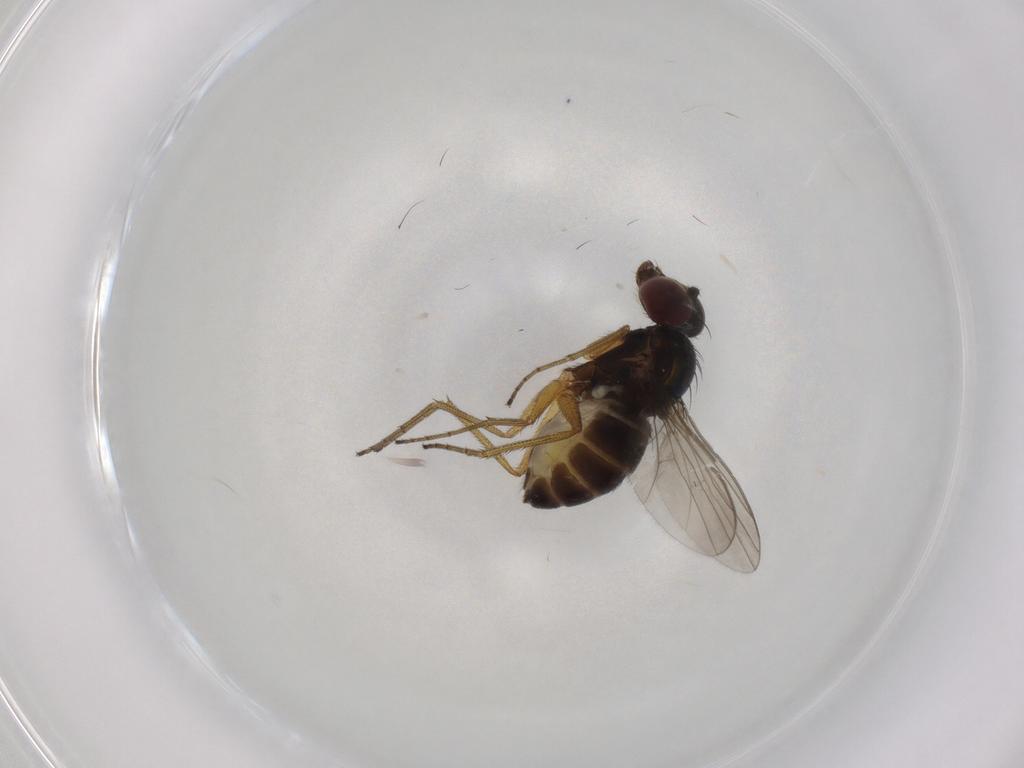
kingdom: Animalia
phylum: Arthropoda
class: Insecta
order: Diptera
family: Dolichopodidae
